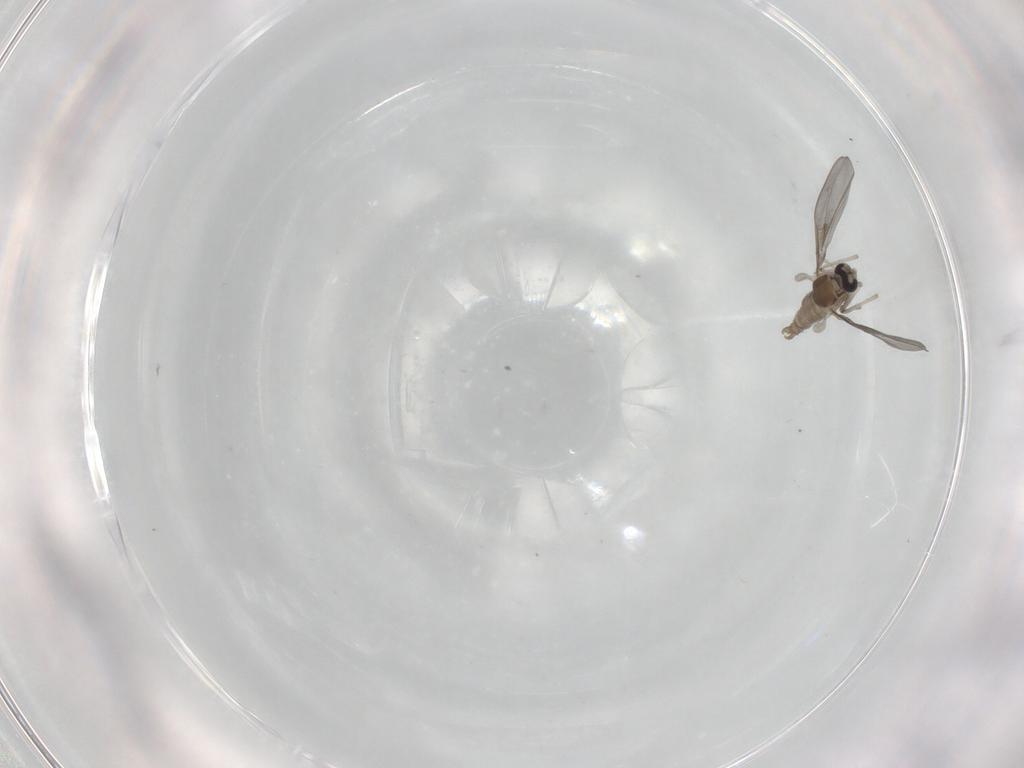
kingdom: Animalia
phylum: Arthropoda
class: Insecta
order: Diptera
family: Cecidomyiidae
